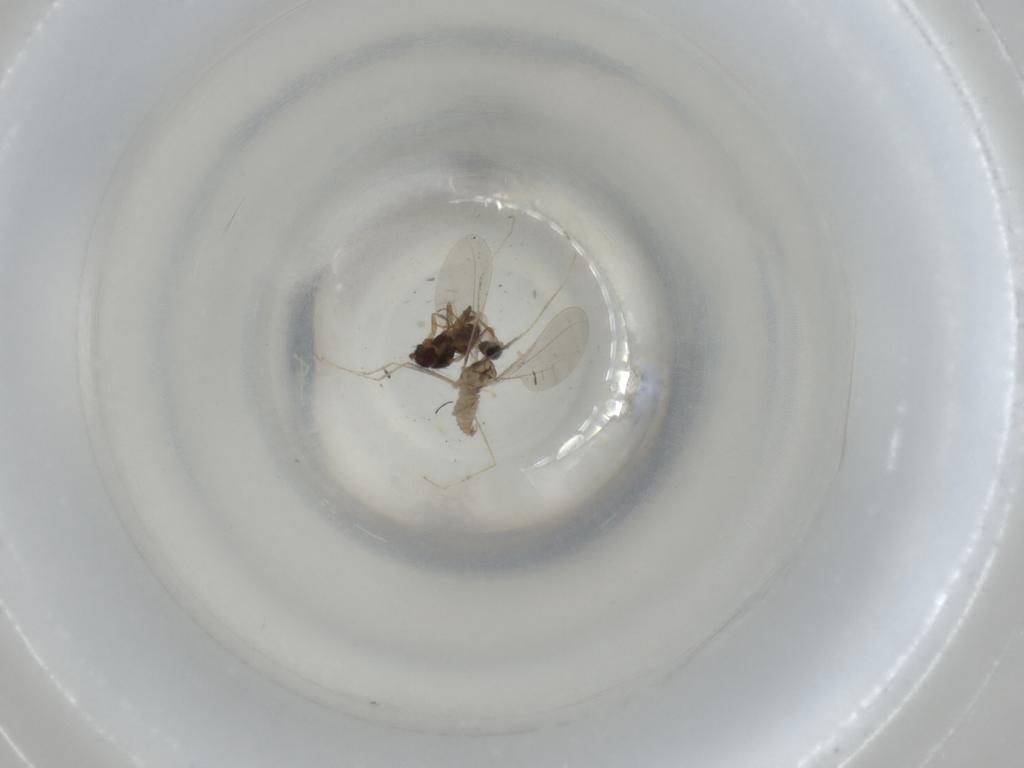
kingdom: Animalia
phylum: Arthropoda
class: Insecta
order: Diptera
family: Cecidomyiidae
